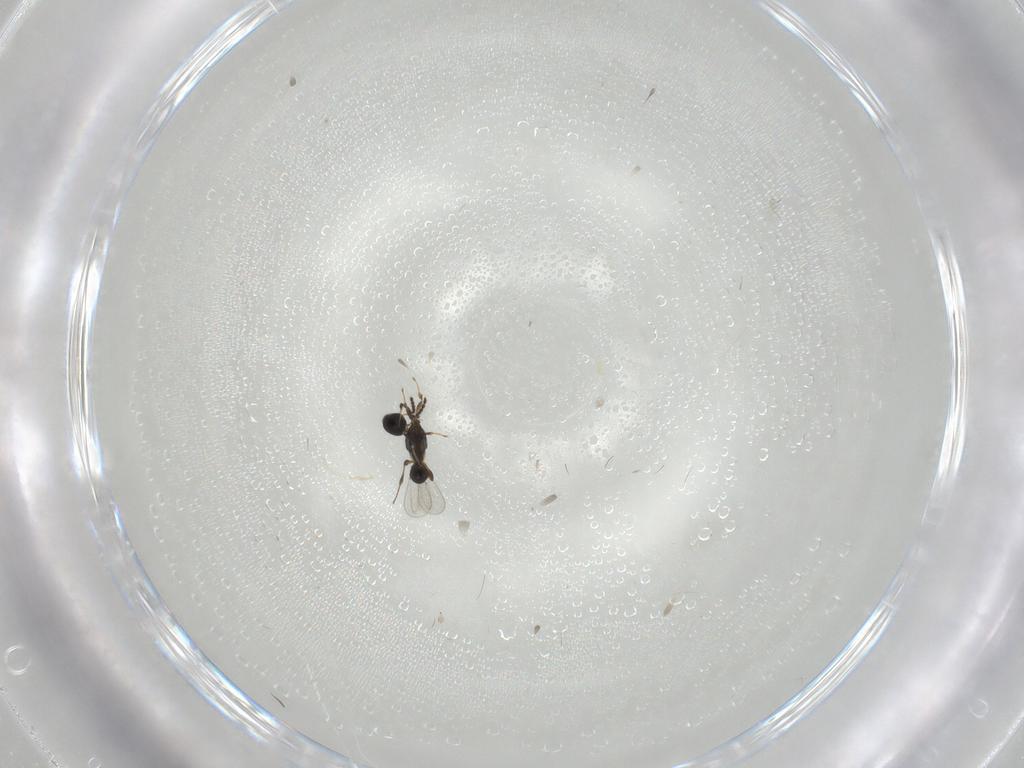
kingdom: Animalia
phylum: Arthropoda
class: Insecta
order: Hymenoptera
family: Platygastridae
